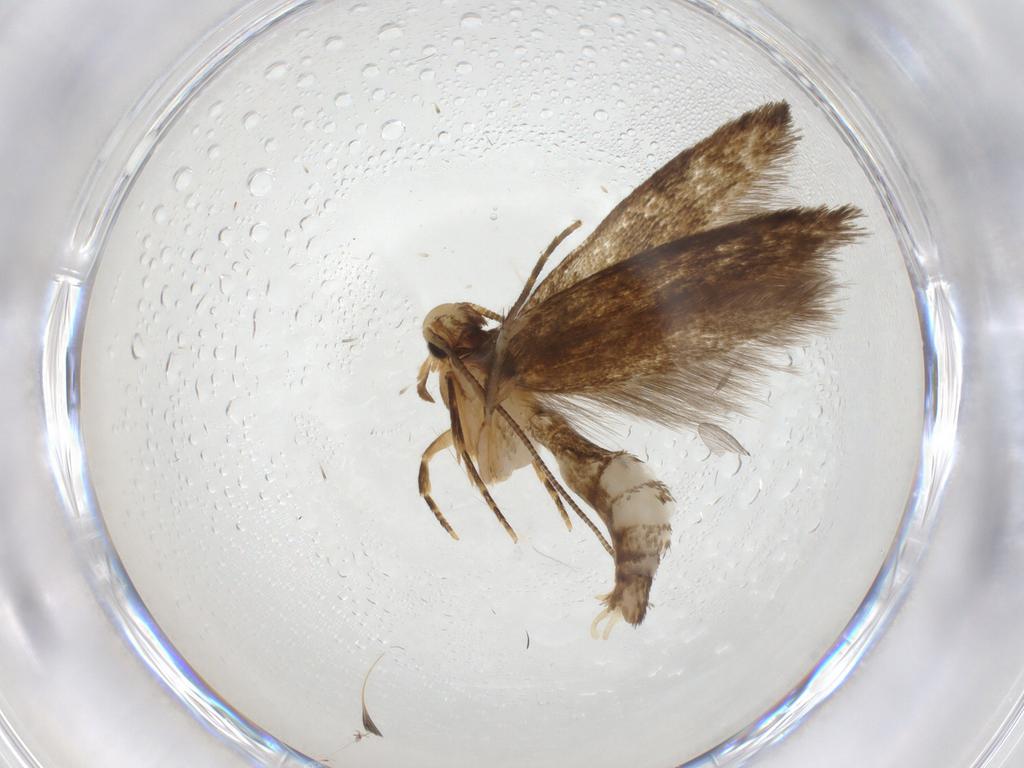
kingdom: Animalia
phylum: Arthropoda
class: Insecta
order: Lepidoptera
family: Tineidae
